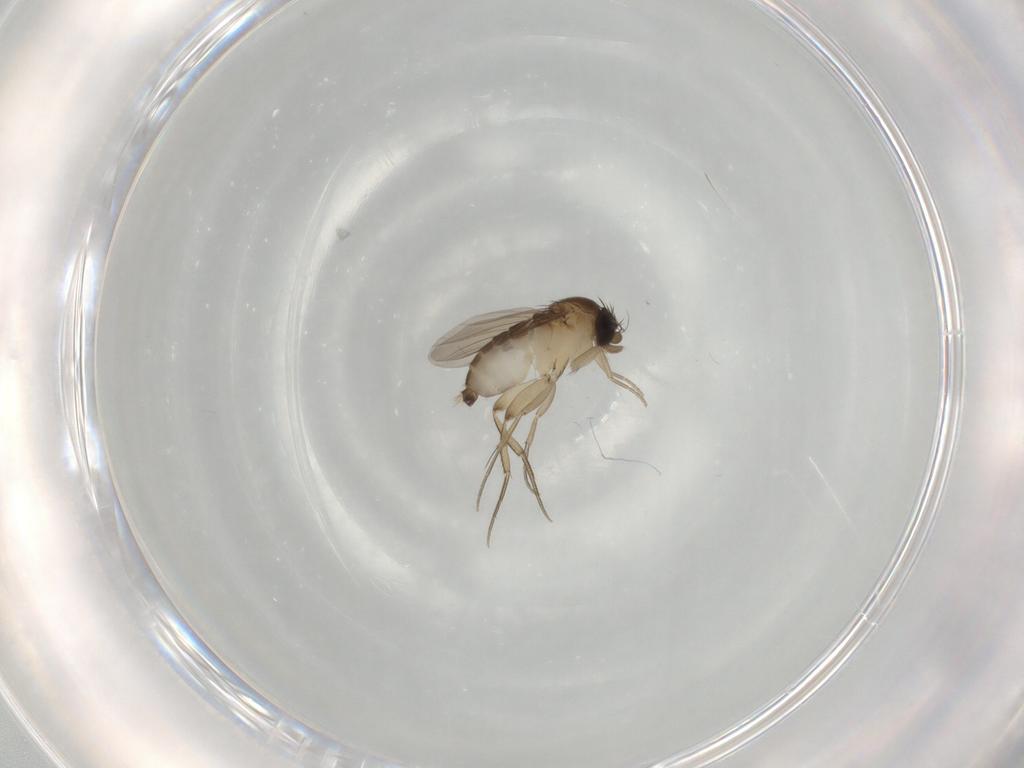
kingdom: Animalia
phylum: Arthropoda
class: Insecta
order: Diptera
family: Phoridae
